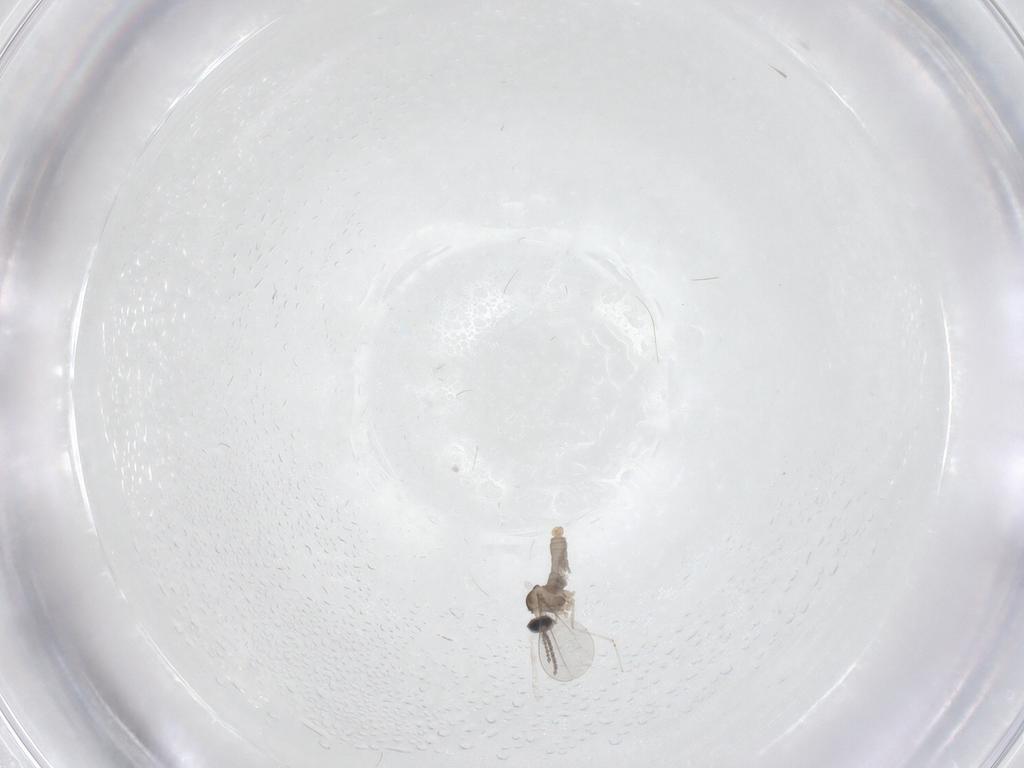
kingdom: Animalia
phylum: Arthropoda
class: Insecta
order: Diptera
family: Cecidomyiidae
